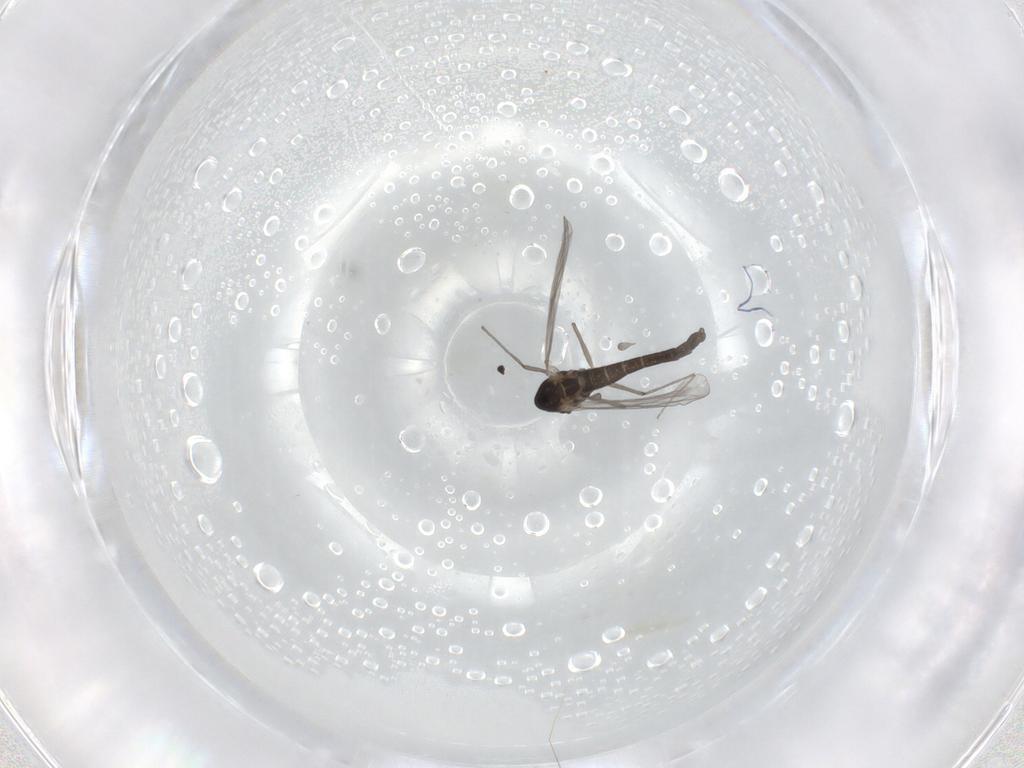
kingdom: Animalia
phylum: Arthropoda
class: Insecta
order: Diptera
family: Chironomidae
